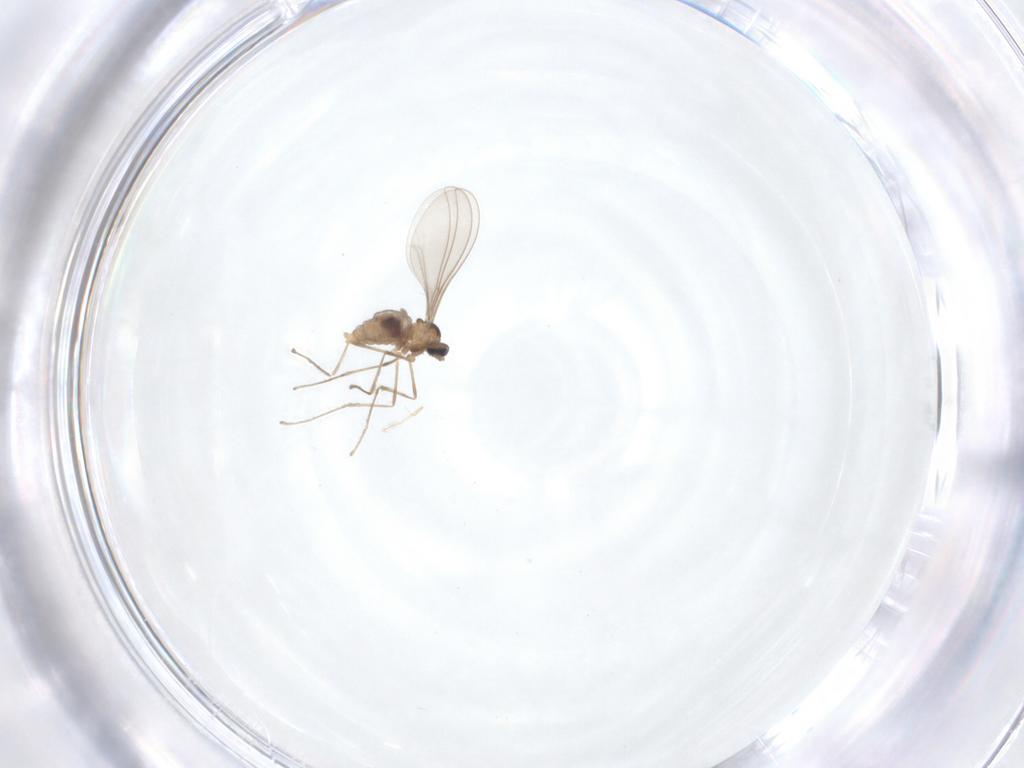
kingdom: Animalia
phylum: Arthropoda
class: Insecta
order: Diptera
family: Cecidomyiidae
